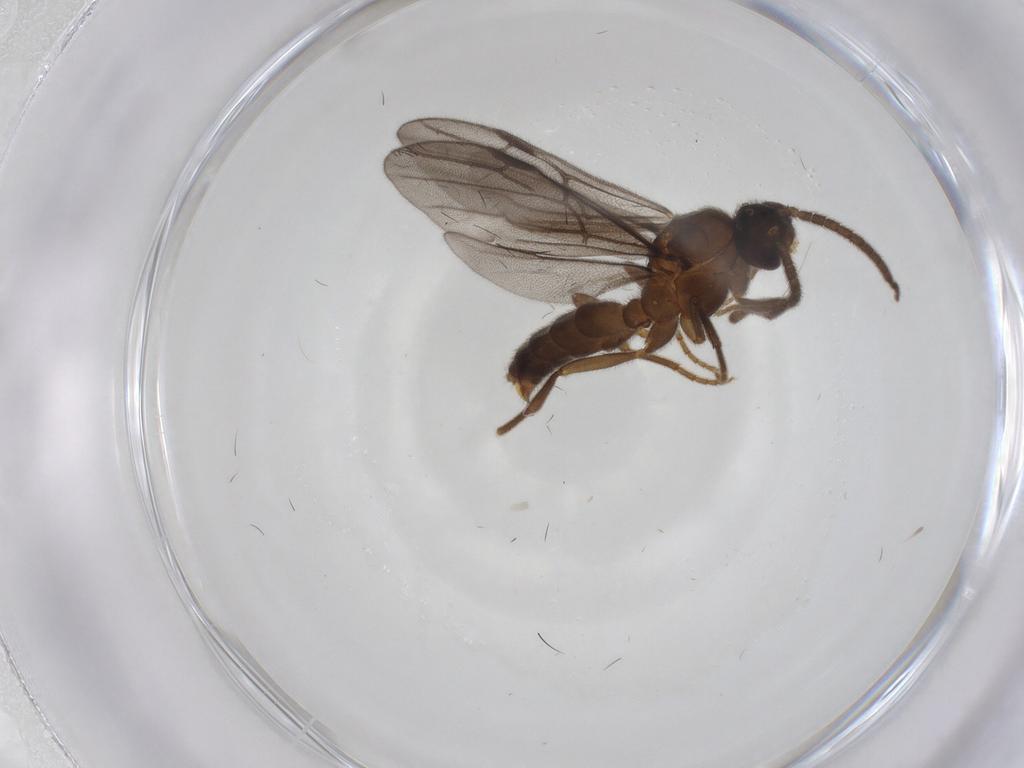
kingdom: Animalia
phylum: Arthropoda
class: Insecta
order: Hymenoptera
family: Formicidae
